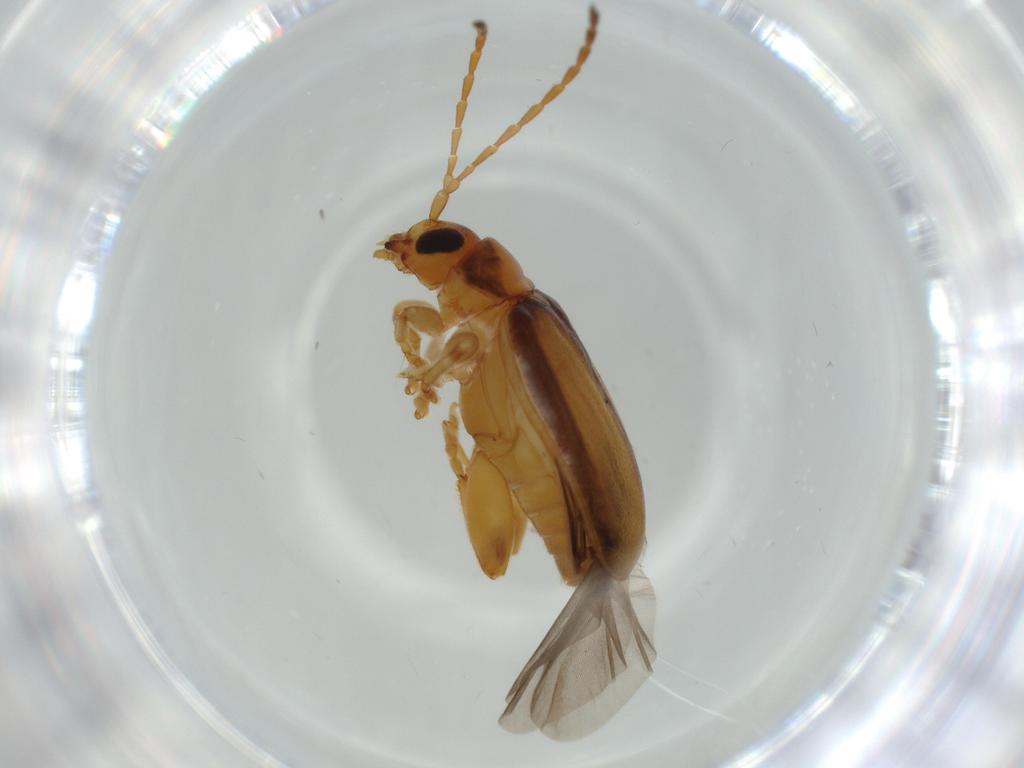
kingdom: Animalia
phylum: Arthropoda
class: Insecta
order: Coleoptera
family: Chrysomelidae
